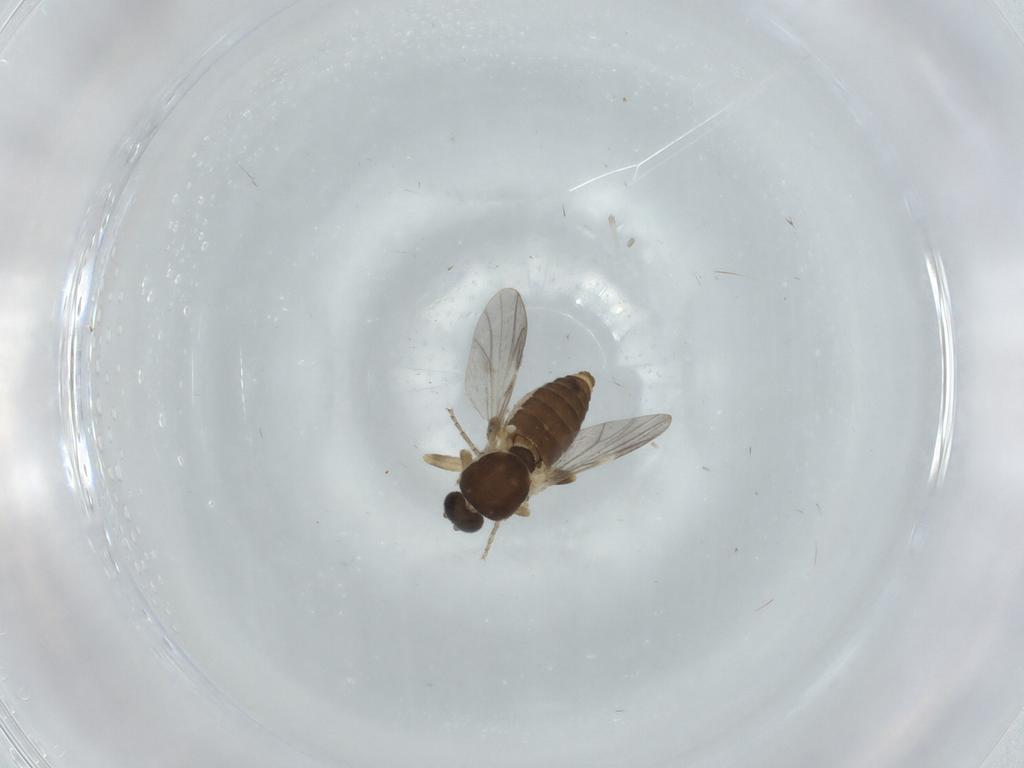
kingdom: Animalia
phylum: Arthropoda
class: Insecta
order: Diptera
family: Ceratopogonidae
